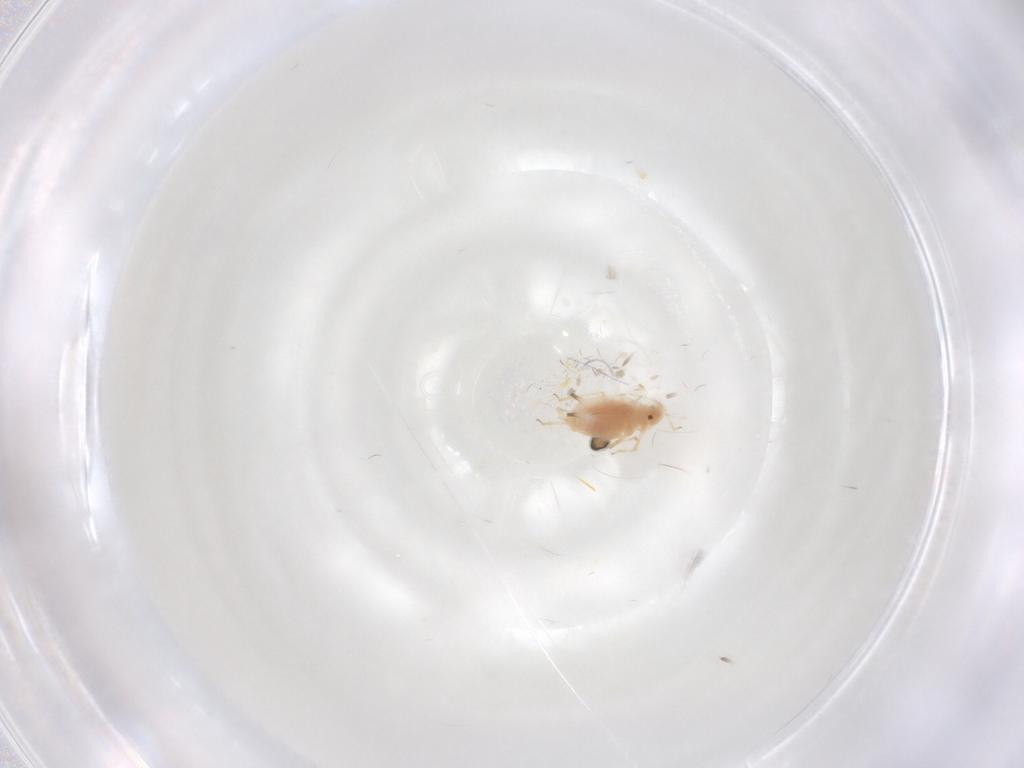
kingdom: Animalia
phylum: Arthropoda
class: Insecta
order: Hemiptera
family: Aphididae
